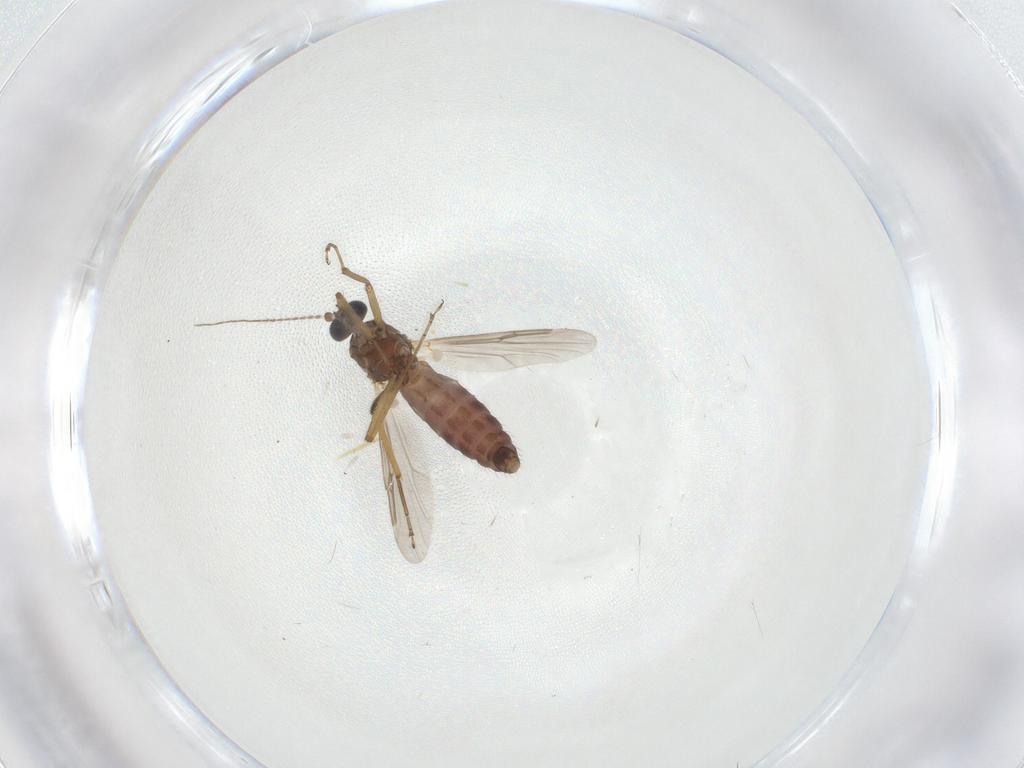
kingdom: Animalia
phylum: Arthropoda
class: Insecta
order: Diptera
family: Ceratopogonidae
